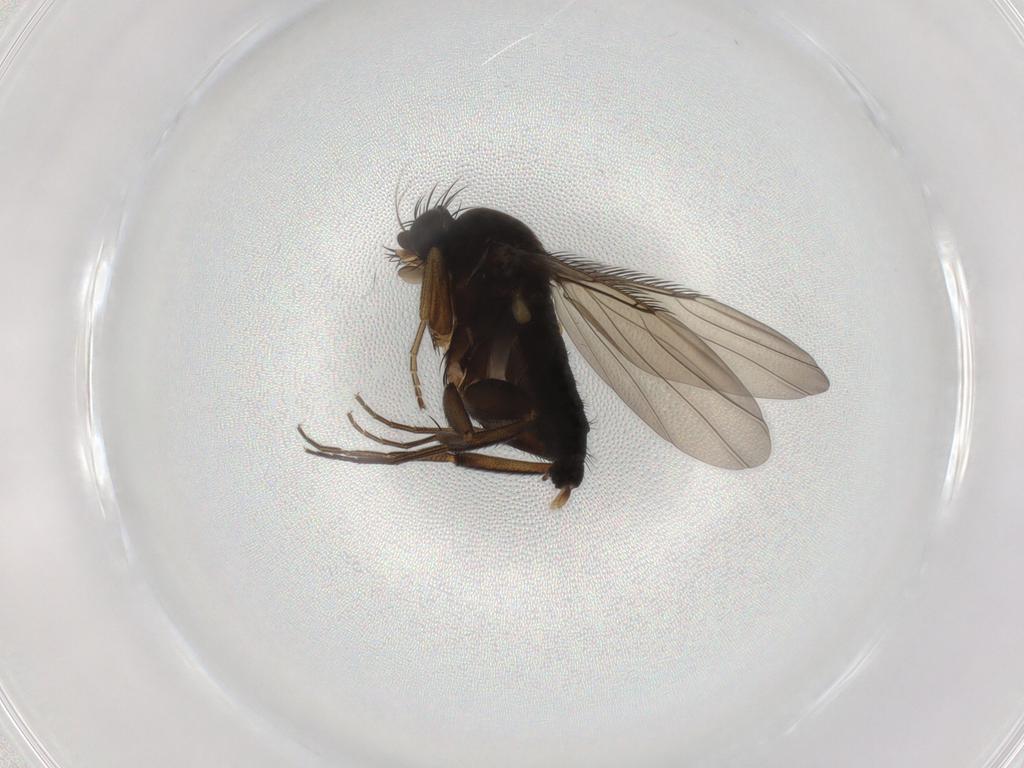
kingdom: Animalia
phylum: Arthropoda
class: Insecta
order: Diptera
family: Phoridae
